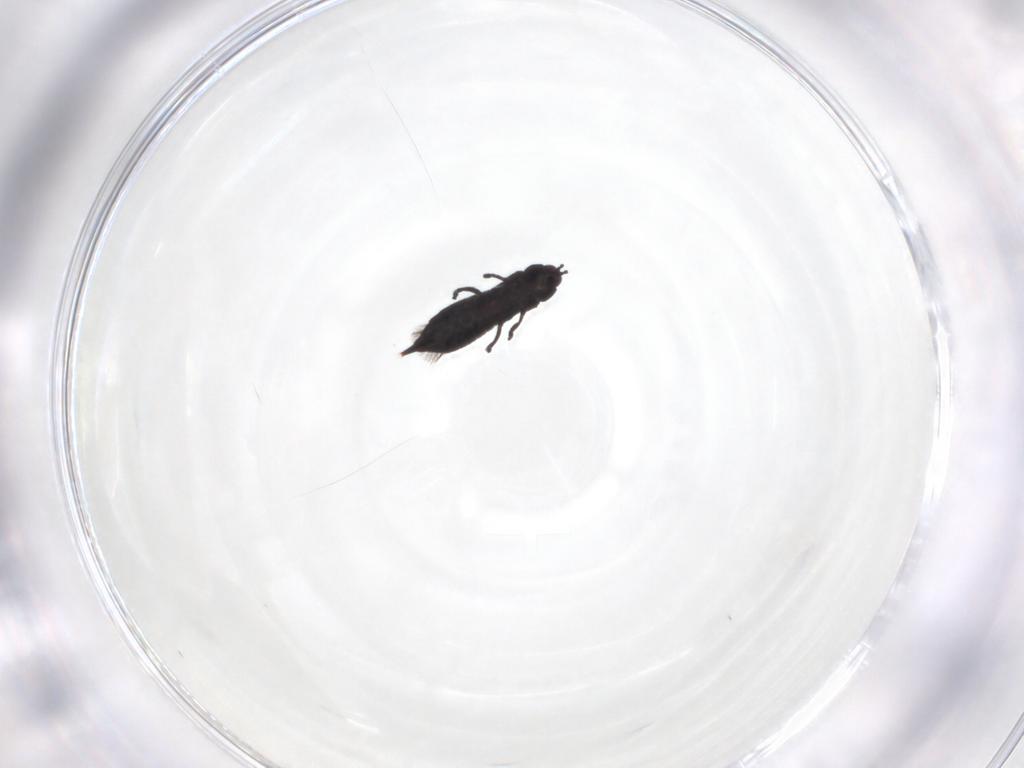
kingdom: Animalia
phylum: Arthropoda
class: Insecta
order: Thysanoptera
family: Phlaeothripidae
